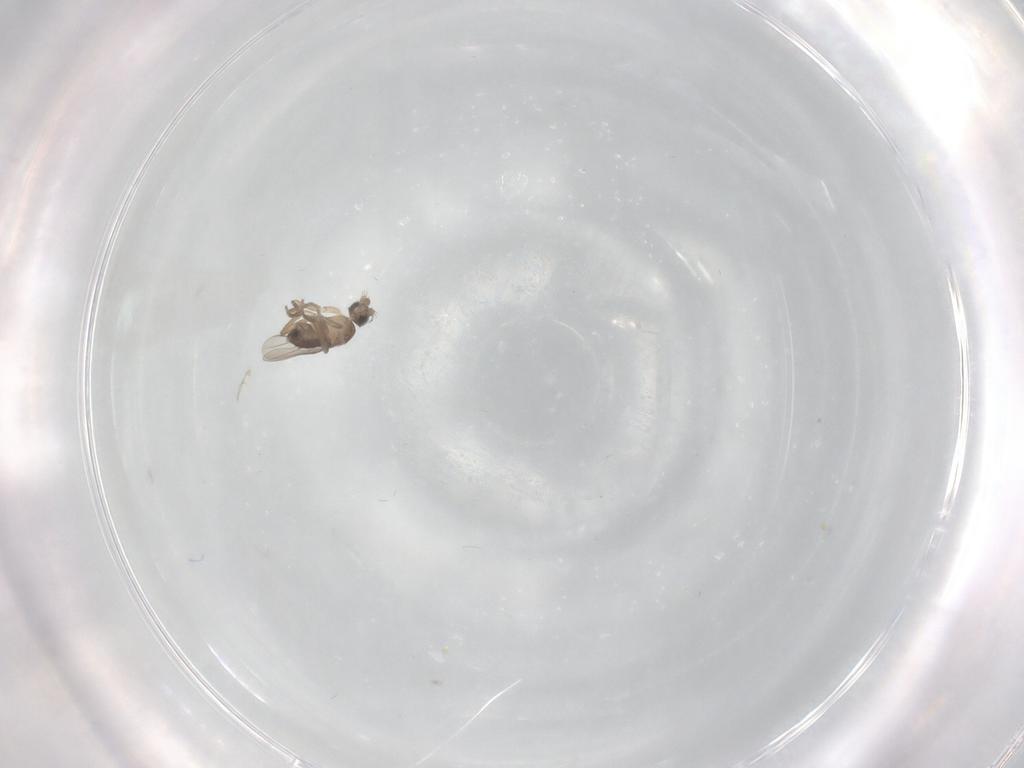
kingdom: Animalia
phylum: Arthropoda
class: Insecta
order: Diptera
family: Phoridae
